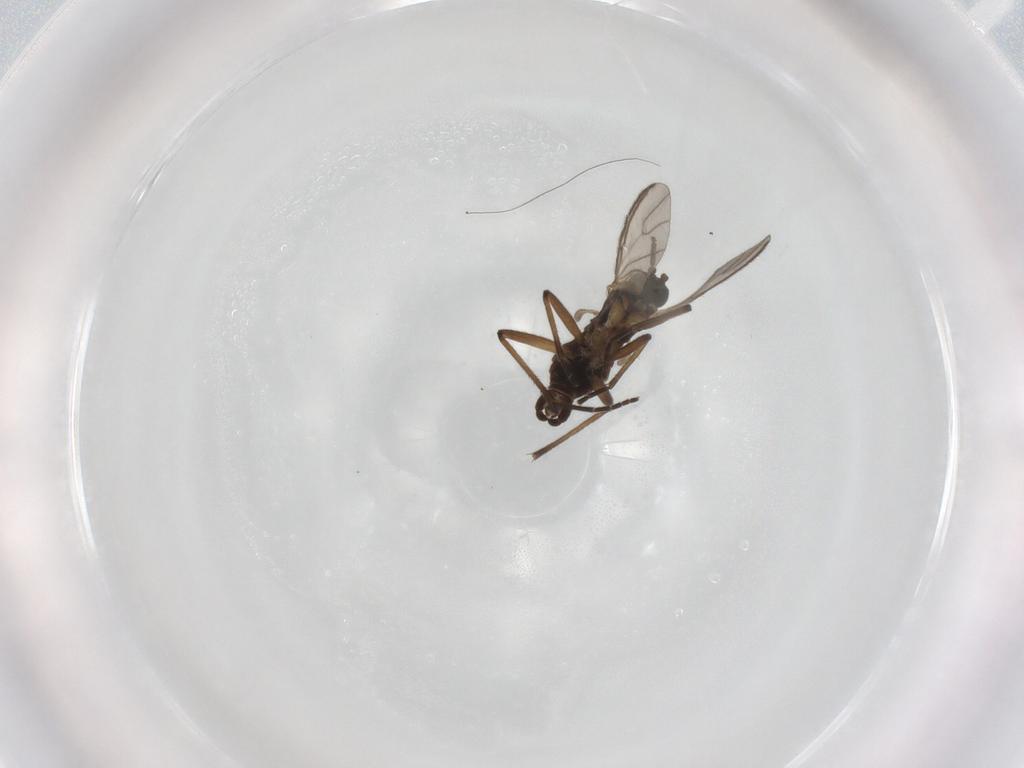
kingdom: Animalia
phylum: Arthropoda
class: Insecta
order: Diptera
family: Sciaridae
